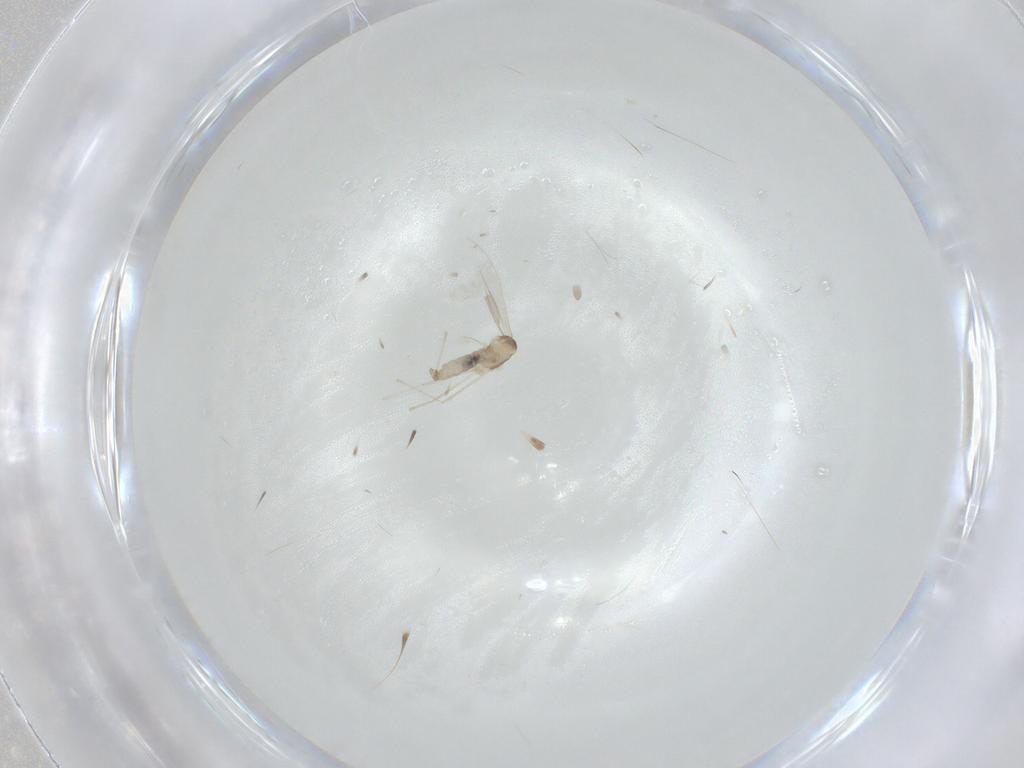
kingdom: Animalia
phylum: Arthropoda
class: Insecta
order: Diptera
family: Cecidomyiidae
